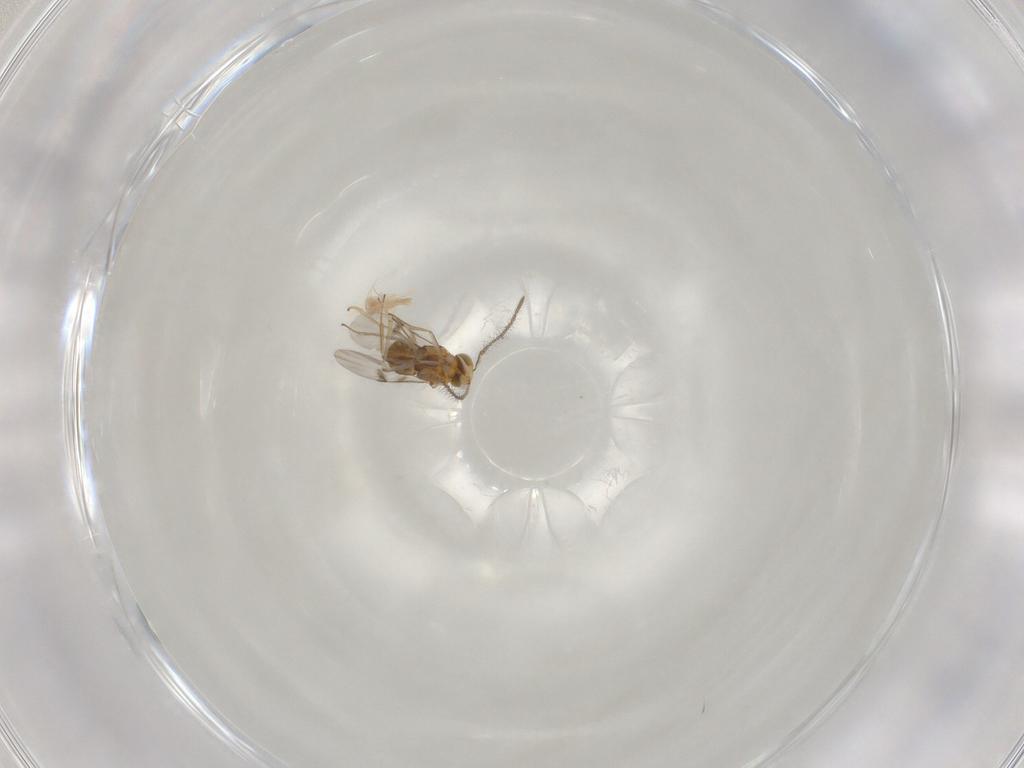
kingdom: Animalia
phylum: Arthropoda
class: Insecta
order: Hymenoptera
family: Encyrtidae
